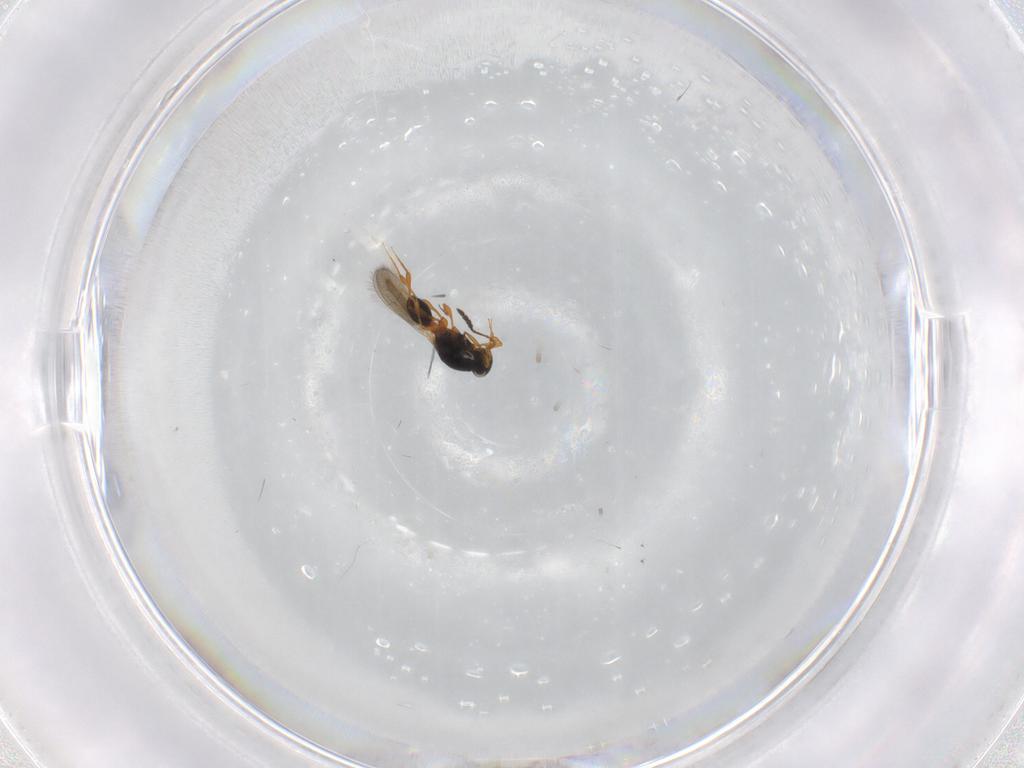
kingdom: Animalia
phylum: Arthropoda
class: Insecta
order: Hymenoptera
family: Platygastridae
